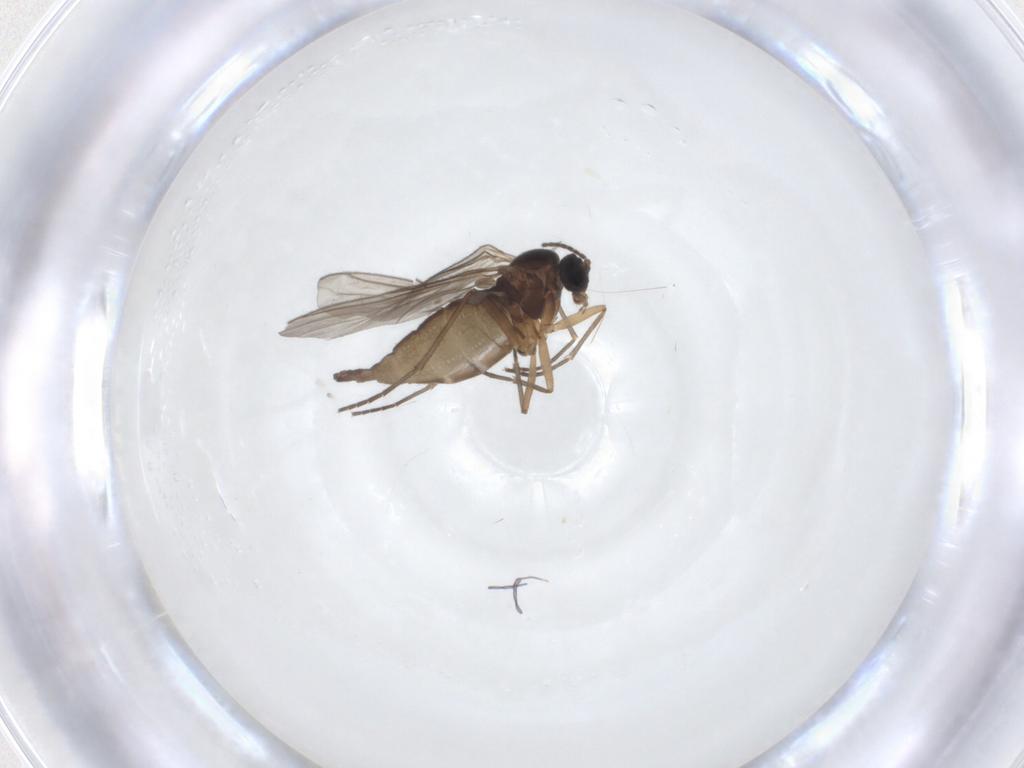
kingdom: Animalia
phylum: Arthropoda
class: Insecta
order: Diptera
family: Sciaridae
